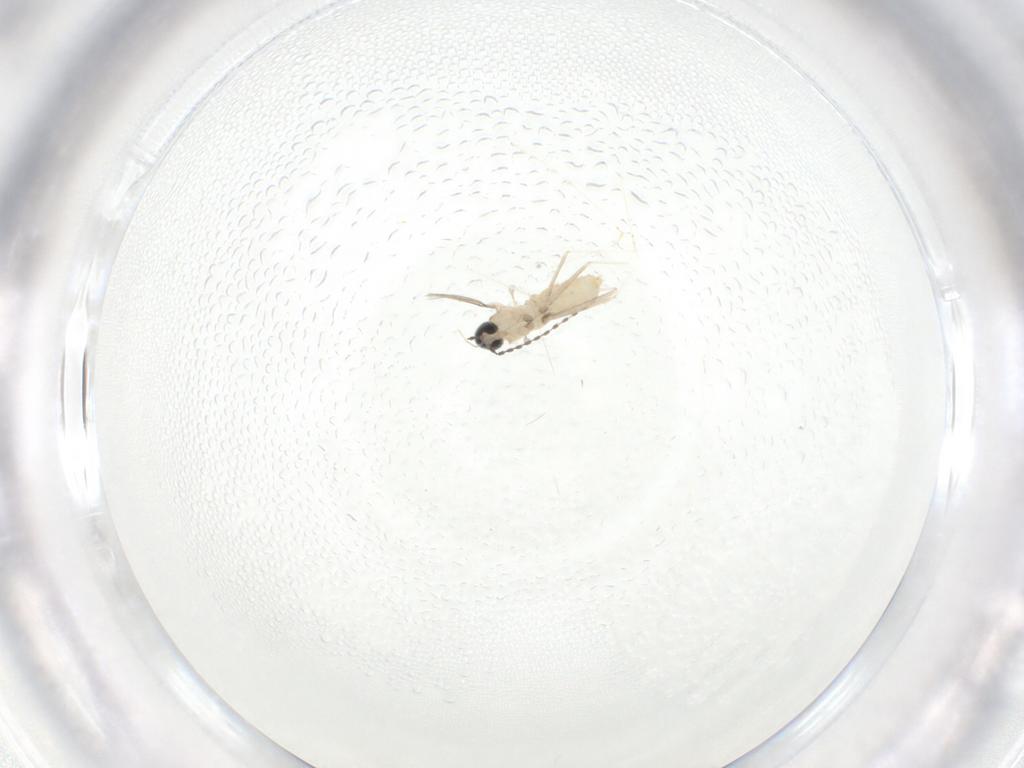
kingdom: Animalia
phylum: Arthropoda
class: Insecta
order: Diptera
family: Cecidomyiidae
